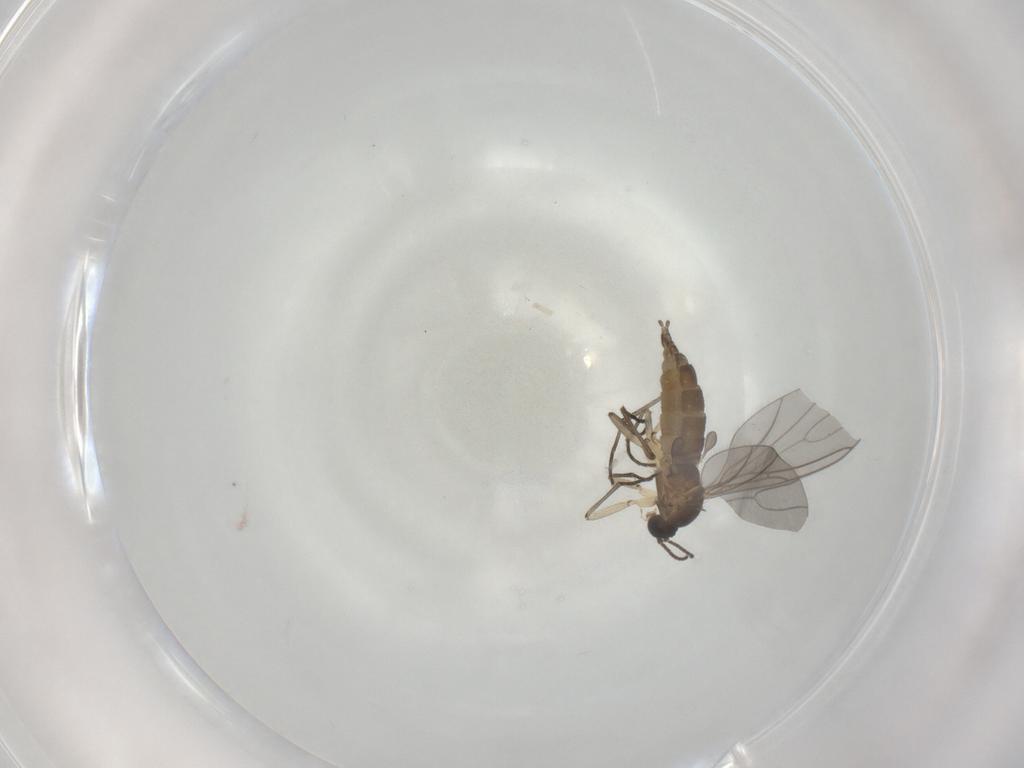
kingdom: Animalia
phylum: Arthropoda
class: Insecta
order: Diptera
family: Sciaridae
